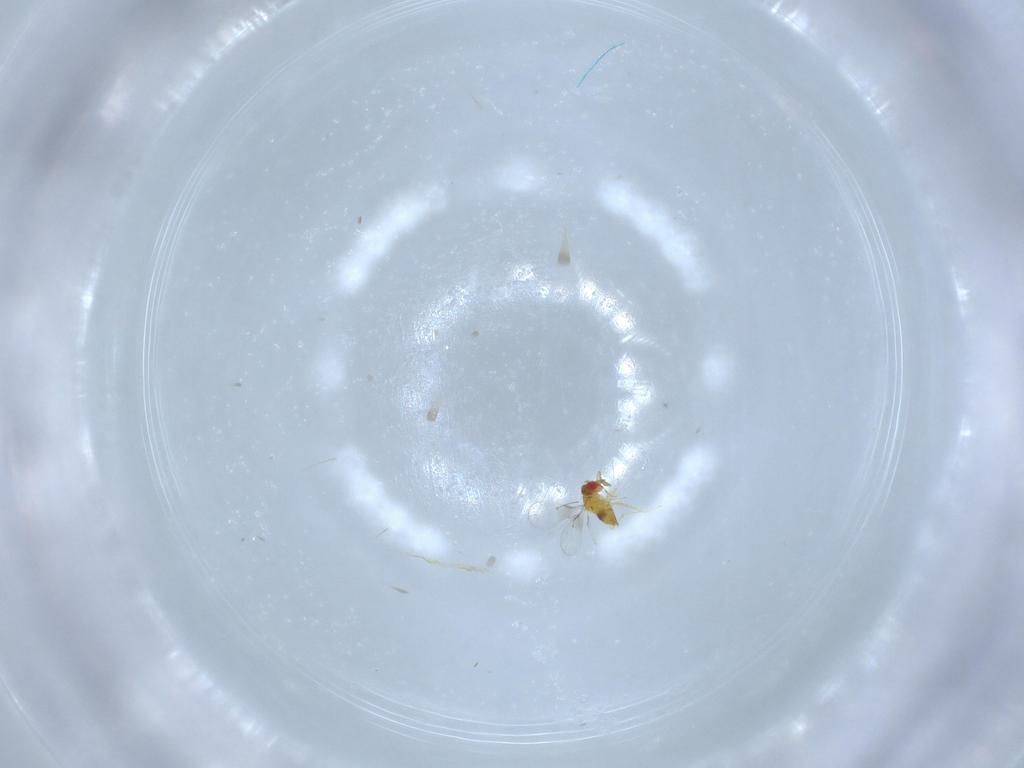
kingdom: Animalia
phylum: Arthropoda
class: Insecta
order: Hymenoptera
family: Trichogrammatidae
